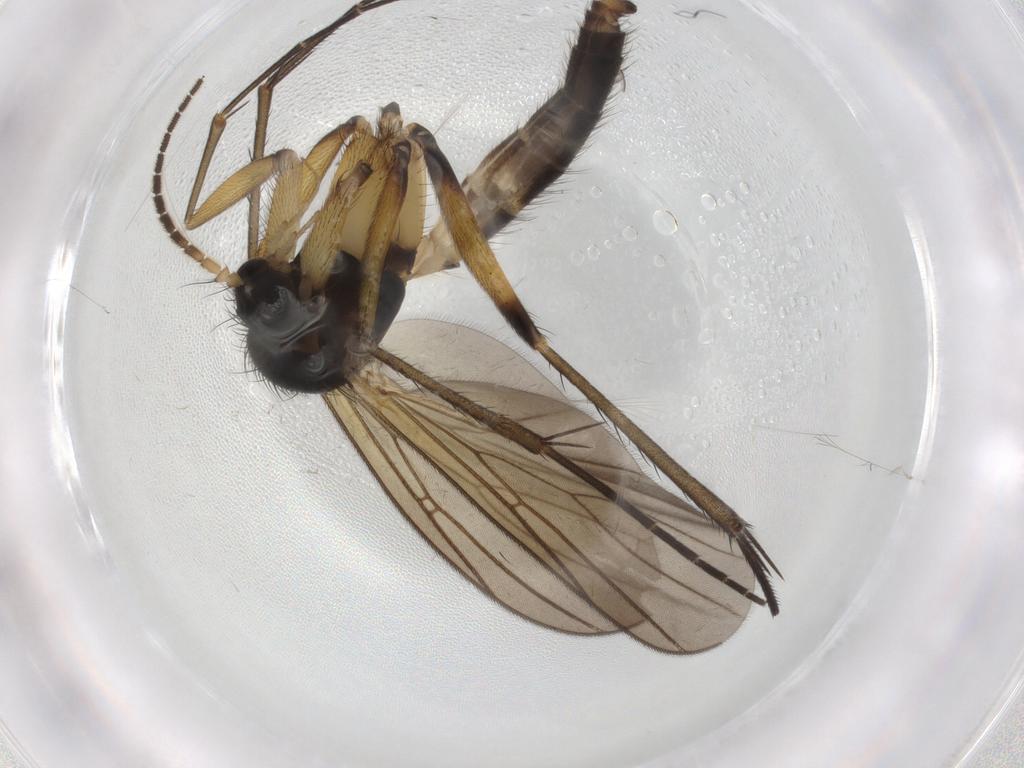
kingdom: Animalia
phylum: Arthropoda
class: Insecta
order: Diptera
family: Mycetophilidae
